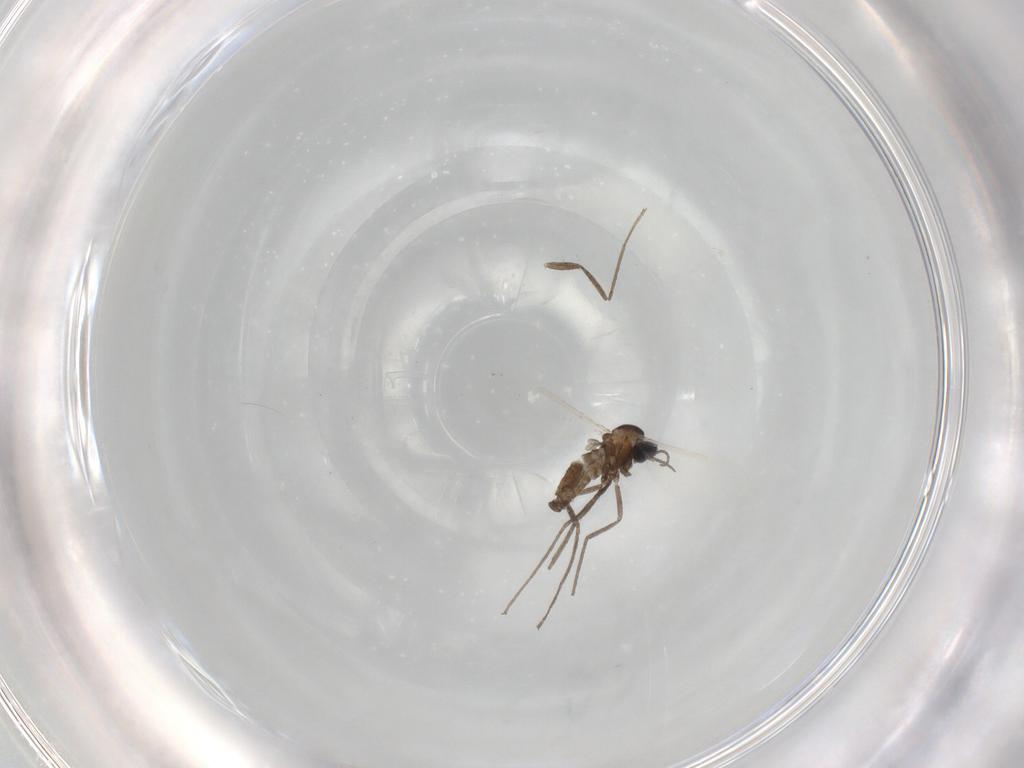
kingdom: Animalia
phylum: Arthropoda
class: Insecta
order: Diptera
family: Cecidomyiidae
